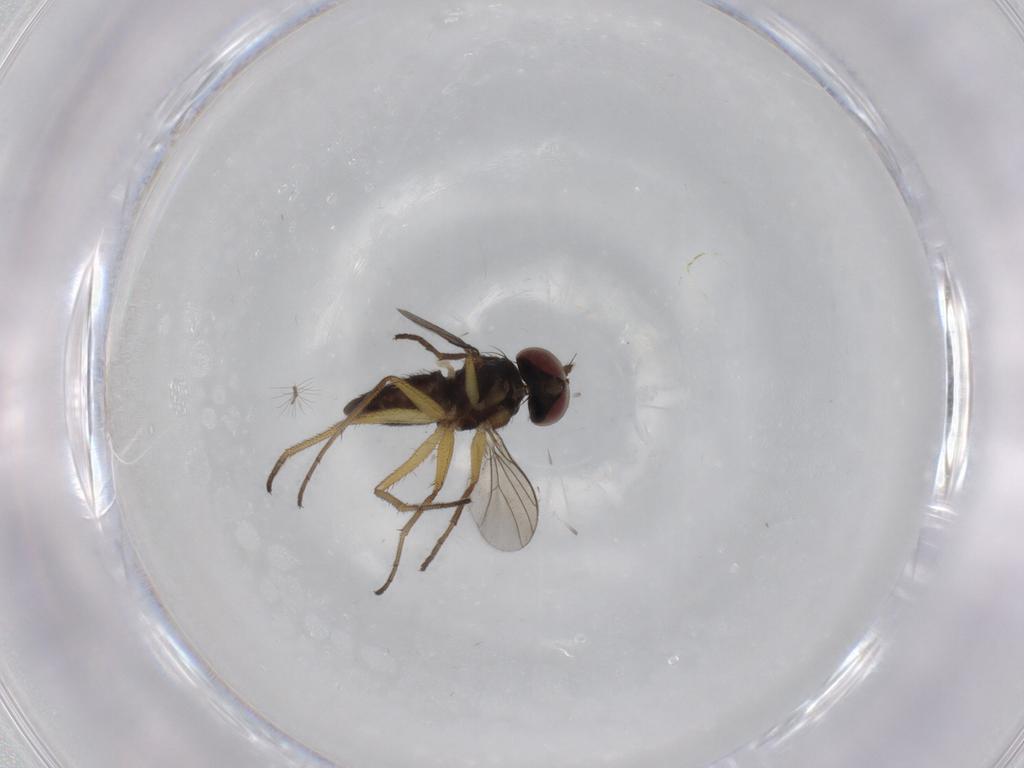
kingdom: Animalia
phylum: Arthropoda
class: Insecta
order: Diptera
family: Dolichopodidae
